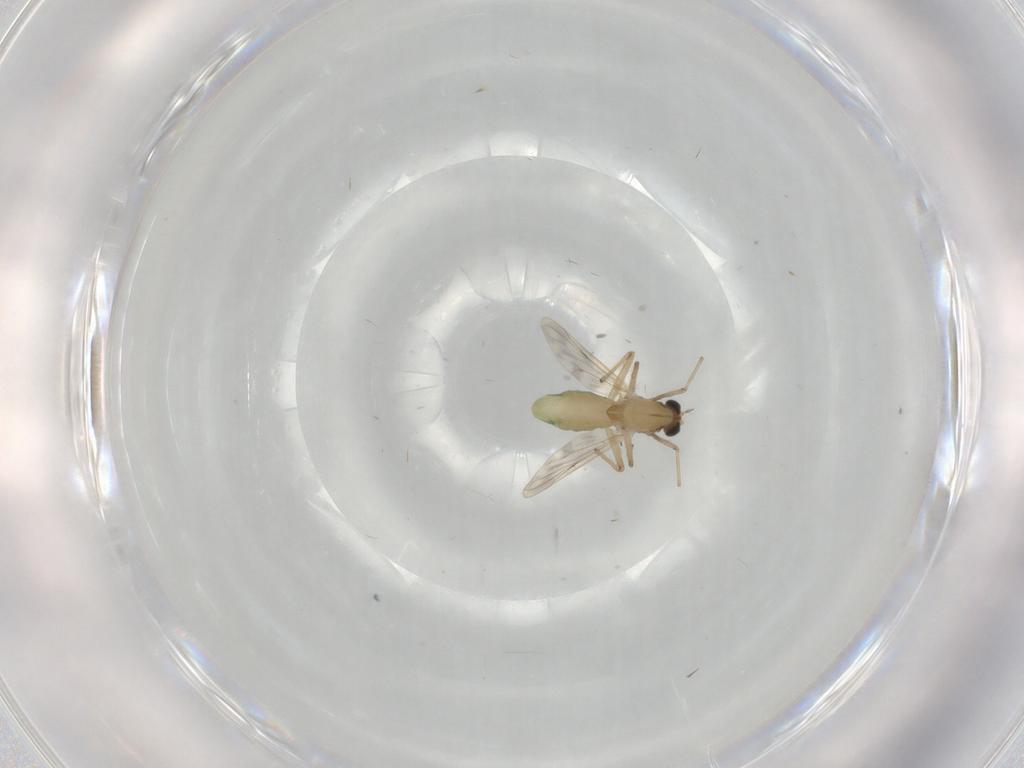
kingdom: Animalia
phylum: Arthropoda
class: Insecta
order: Diptera
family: Chironomidae
